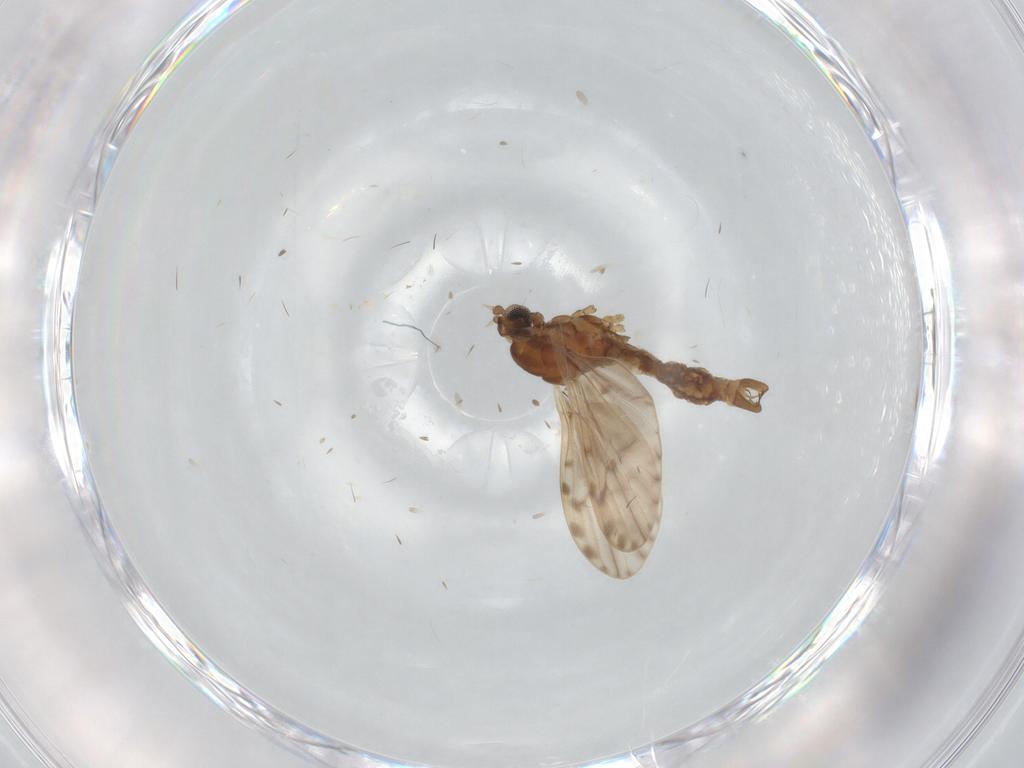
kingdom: Animalia
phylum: Arthropoda
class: Insecta
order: Diptera
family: Limoniidae
